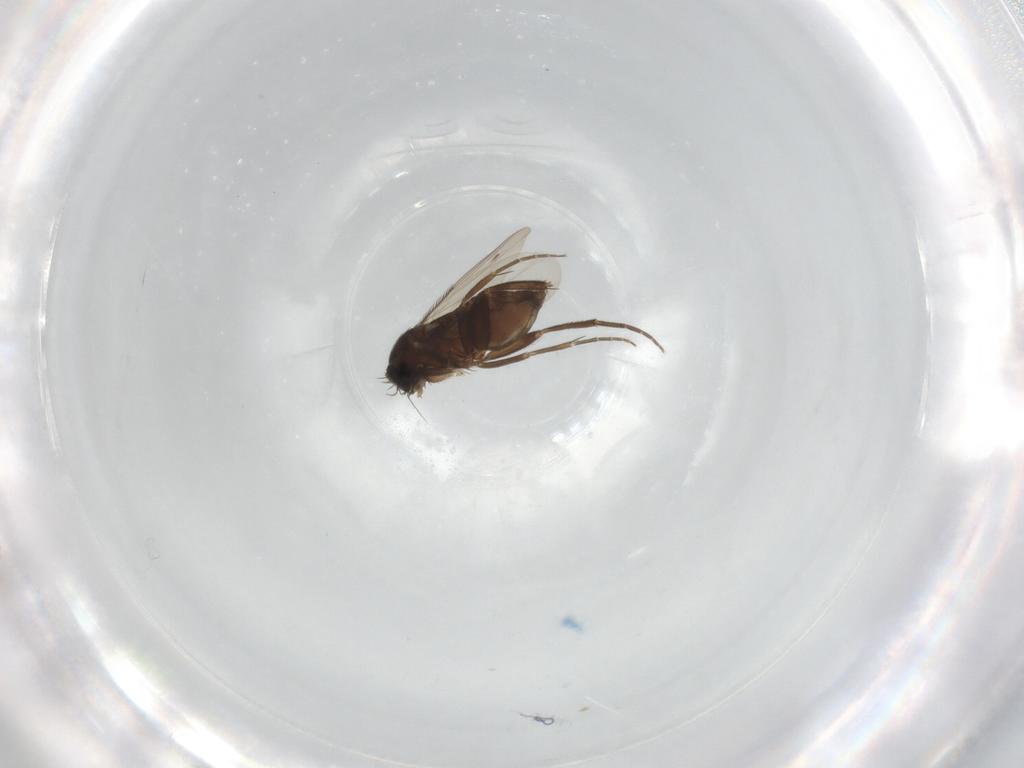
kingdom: Animalia
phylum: Arthropoda
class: Insecta
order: Diptera
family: Phoridae
